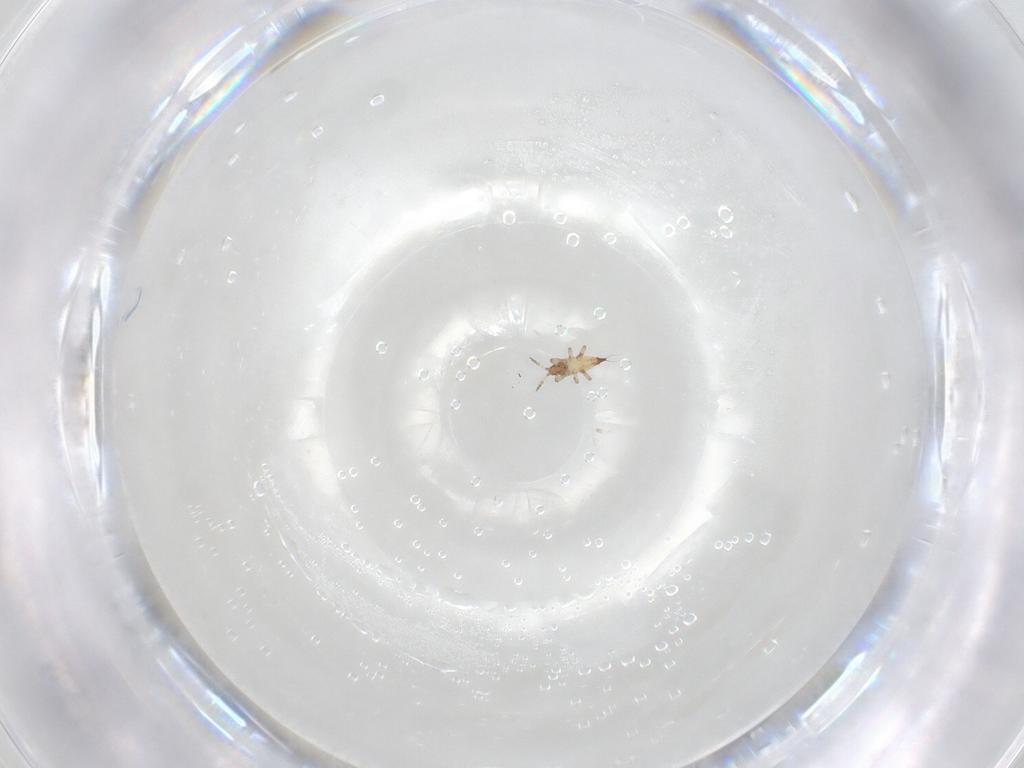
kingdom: Animalia
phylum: Arthropoda
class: Insecta
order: Thysanoptera
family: Phlaeothripidae
